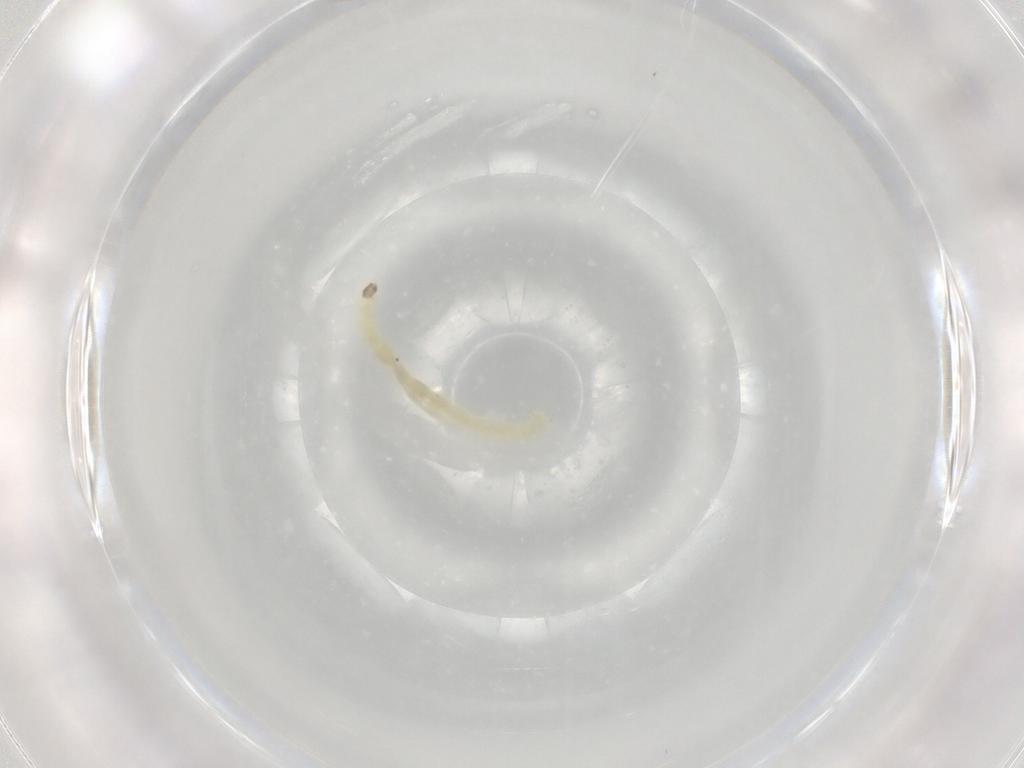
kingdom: Animalia
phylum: Arthropoda
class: Insecta
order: Diptera
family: Chironomidae
